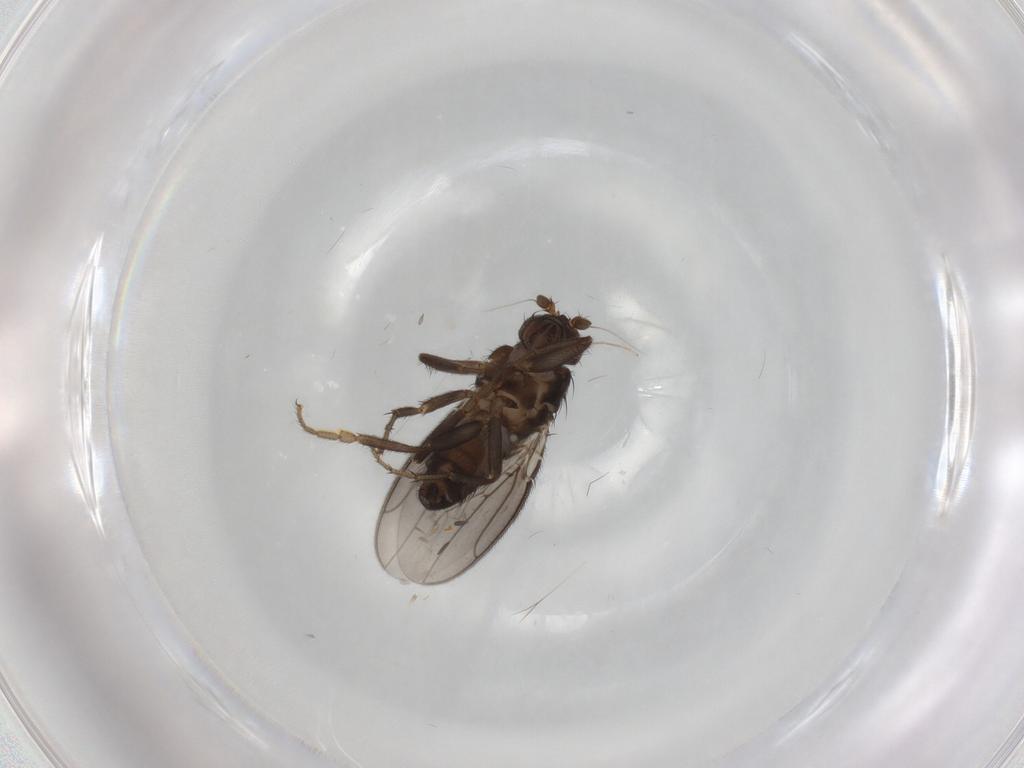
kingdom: Animalia
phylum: Arthropoda
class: Insecta
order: Diptera
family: Sphaeroceridae
